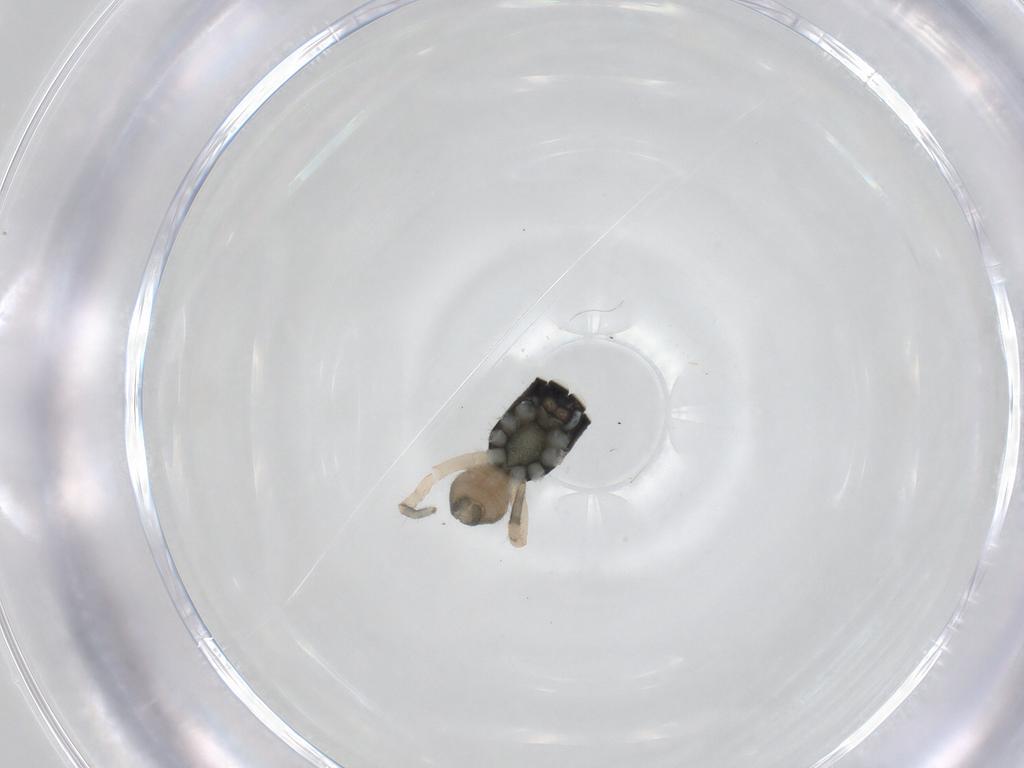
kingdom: Animalia
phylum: Arthropoda
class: Arachnida
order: Araneae
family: Salticidae
